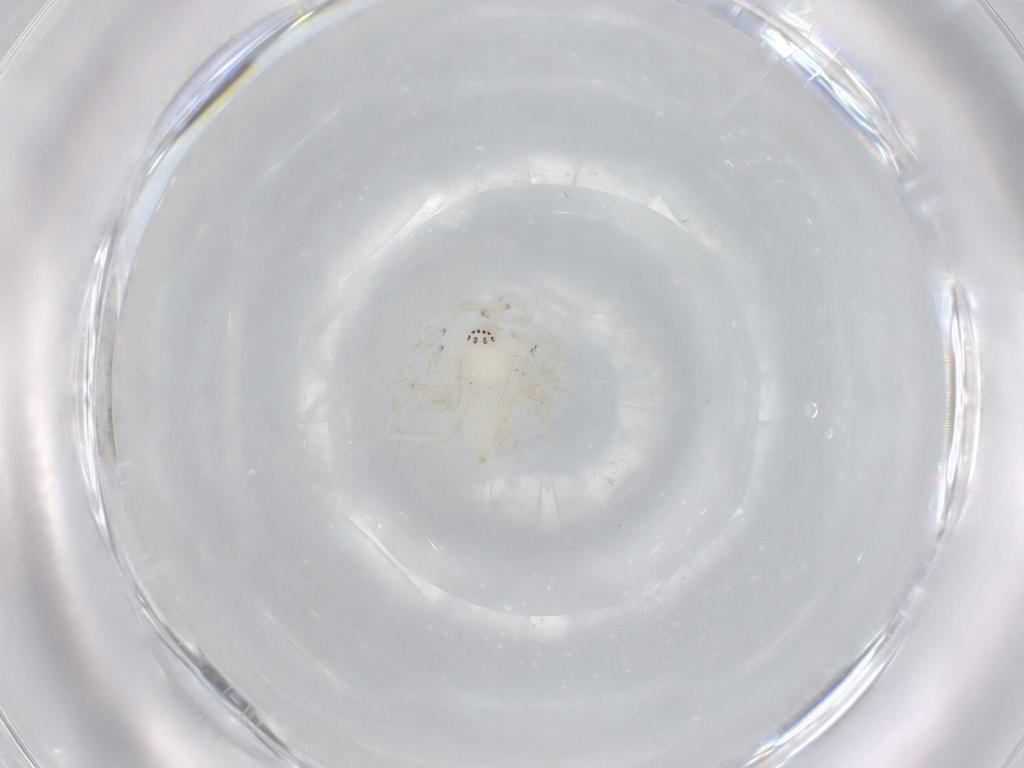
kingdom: Animalia
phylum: Arthropoda
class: Arachnida
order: Araneae
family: Anyphaenidae
